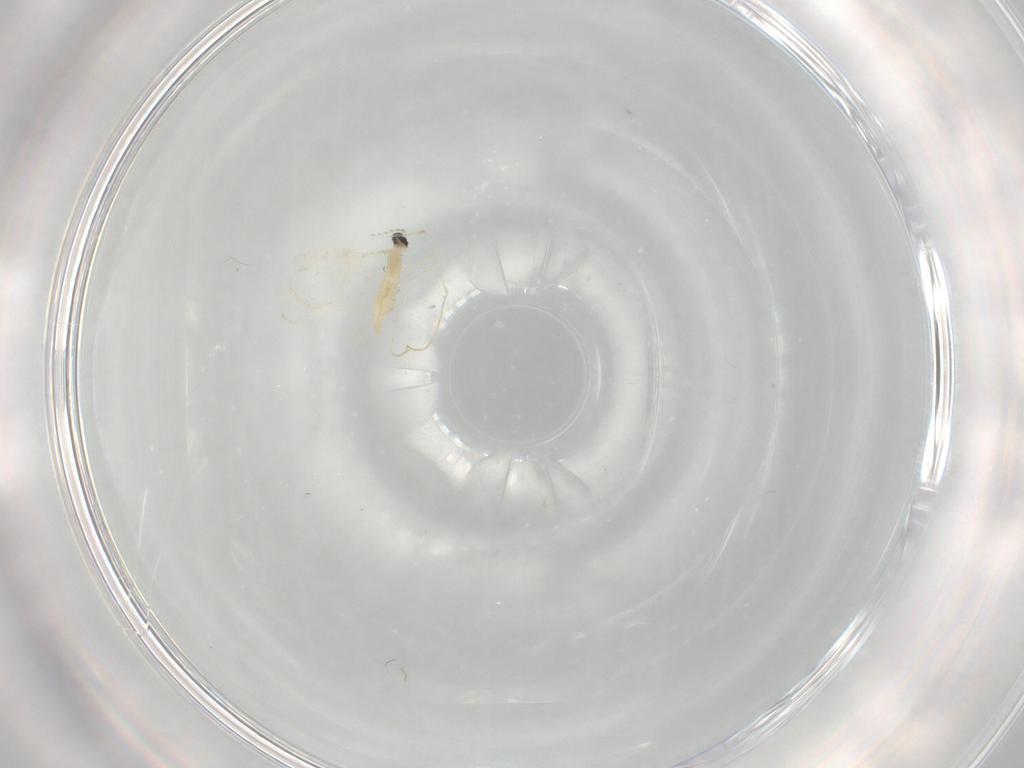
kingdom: Animalia
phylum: Arthropoda
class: Insecta
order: Diptera
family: Cecidomyiidae
